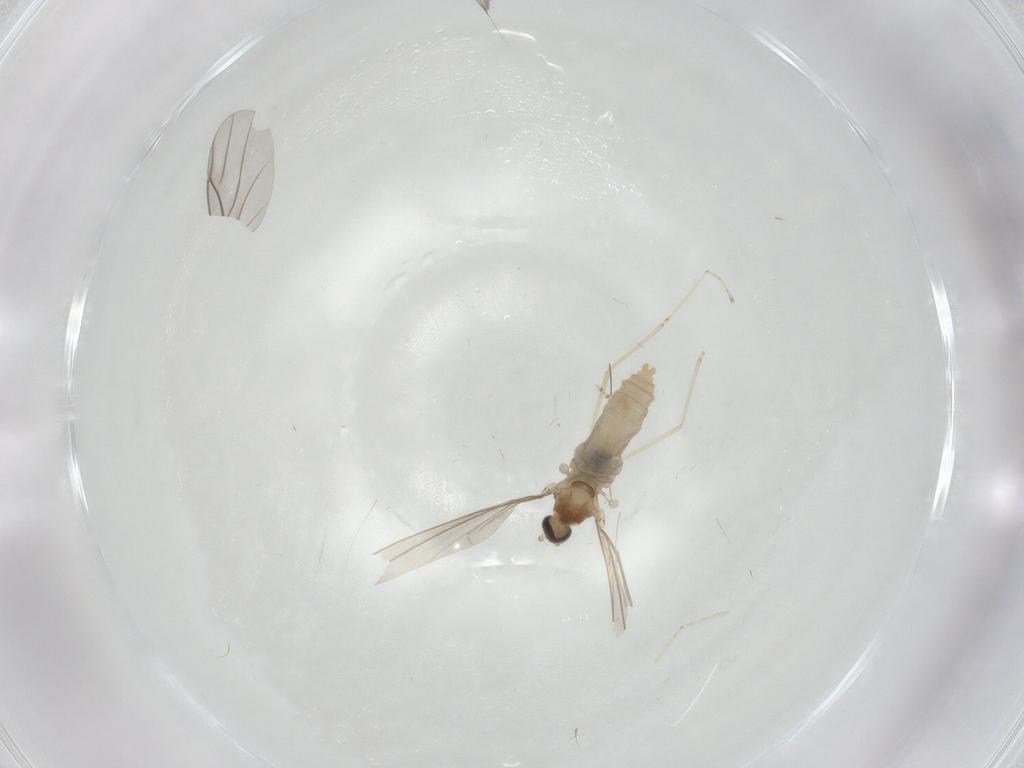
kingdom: Animalia
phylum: Arthropoda
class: Insecta
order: Diptera
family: Cecidomyiidae
